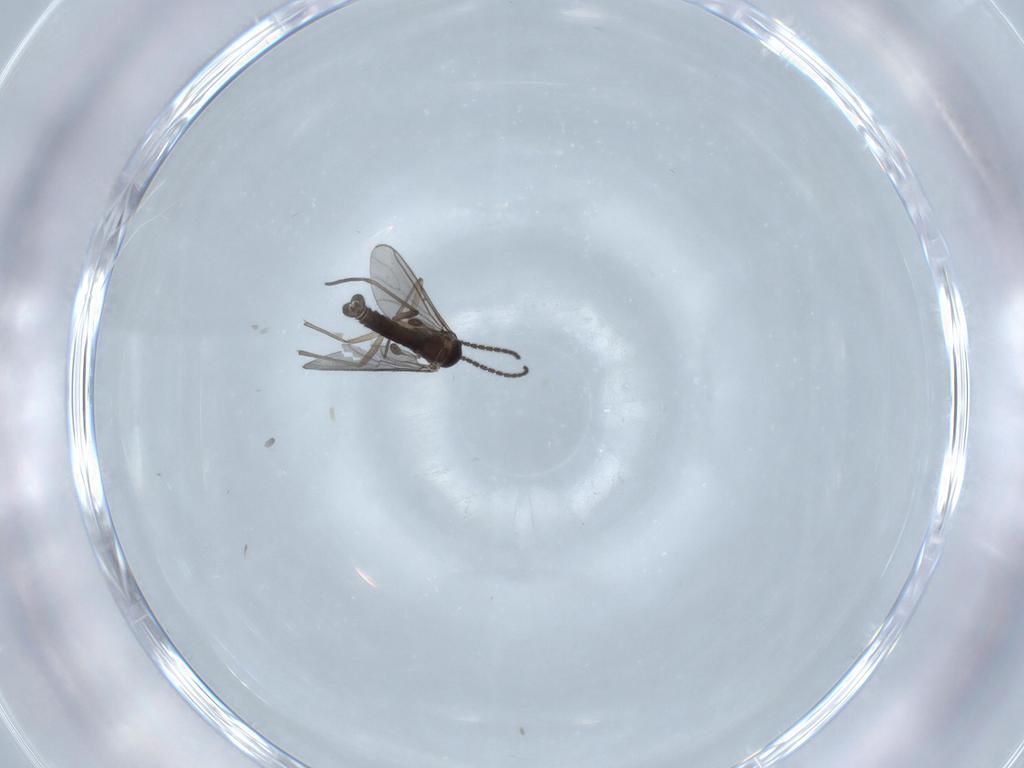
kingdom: Animalia
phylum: Arthropoda
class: Insecta
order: Diptera
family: Sciaridae
